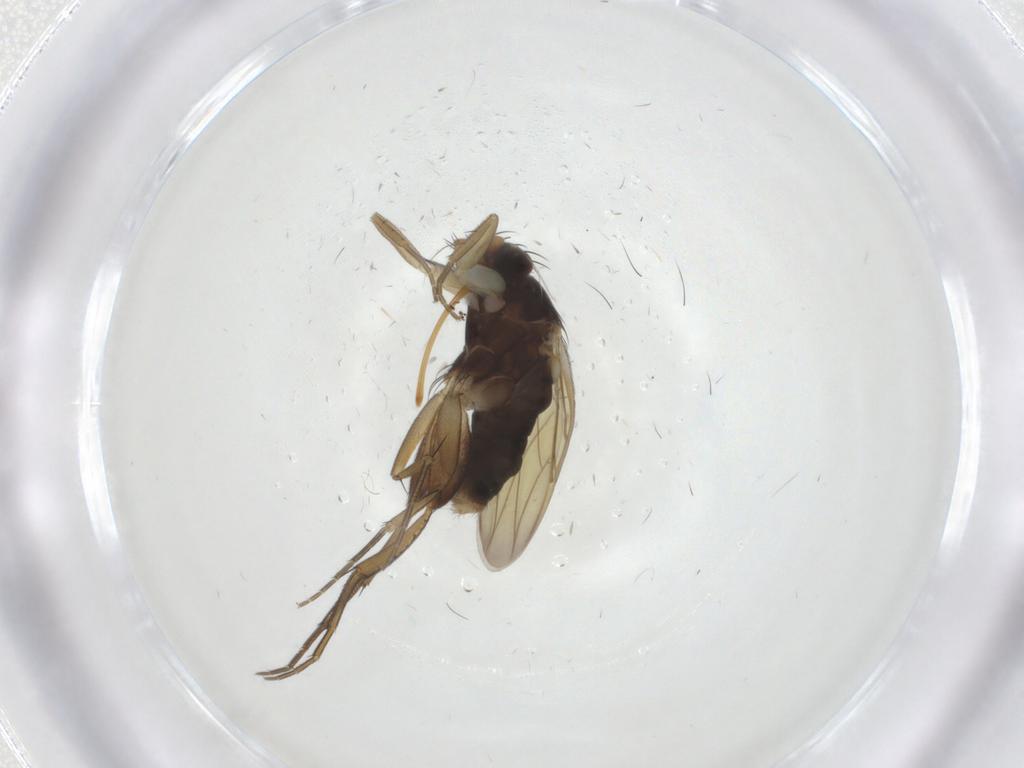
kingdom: Animalia
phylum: Arthropoda
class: Insecta
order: Diptera
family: Phoridae
